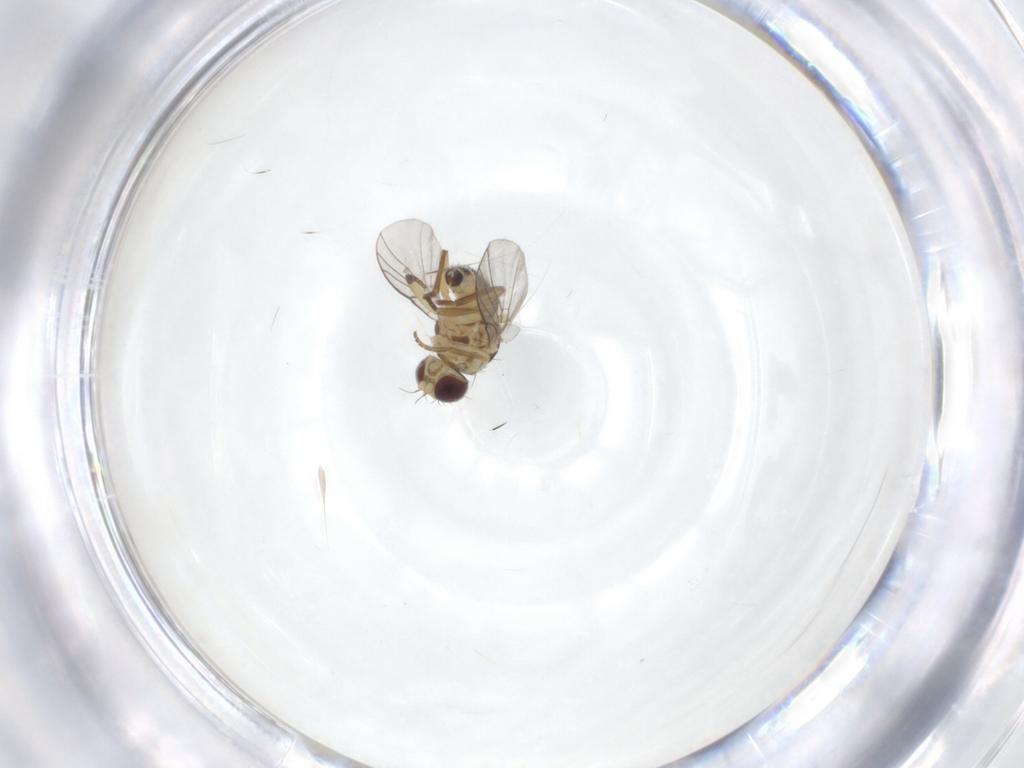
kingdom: Animalia
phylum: Arthropoda
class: Insecta
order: Diptera
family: Agromyzidae
